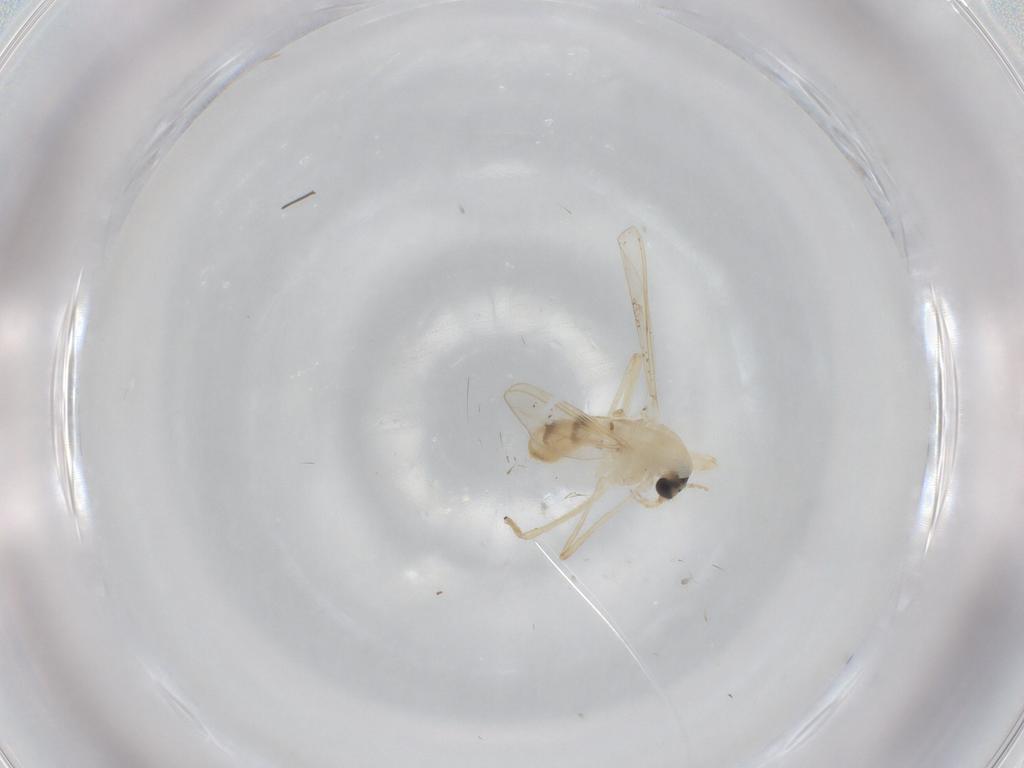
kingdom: Animalia
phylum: Arthropoda
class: Insecta
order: Diptera
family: Chironomidae
